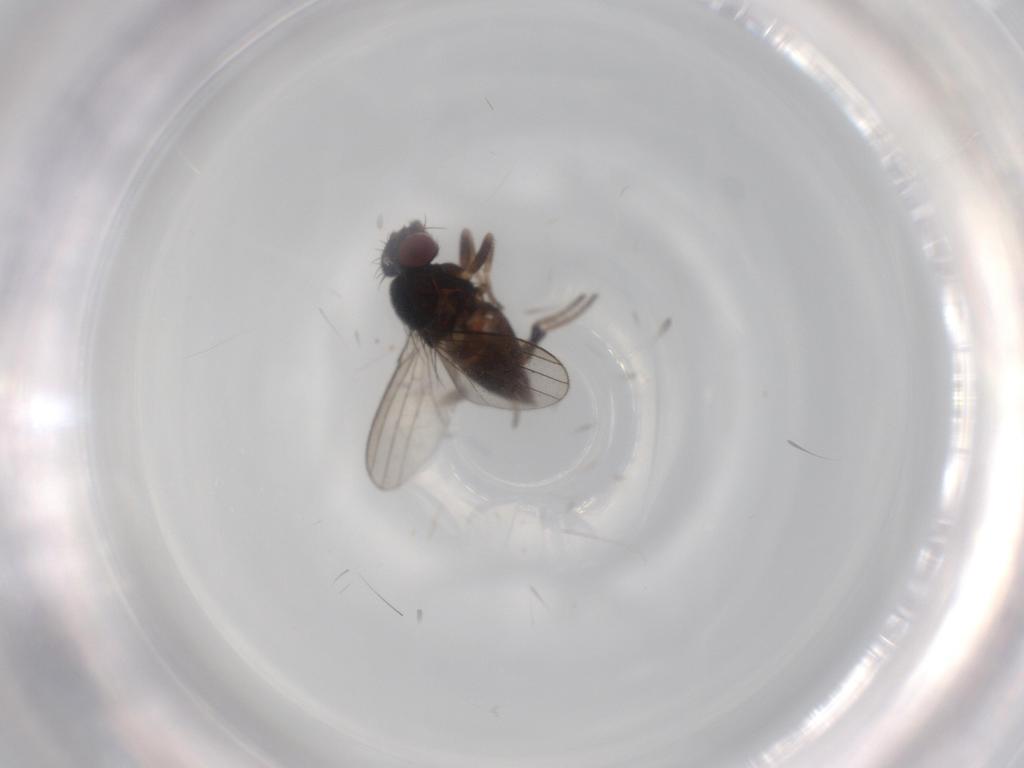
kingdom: Animalia
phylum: Arthropoda
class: Insecta
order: Diptera
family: Milichiidae
